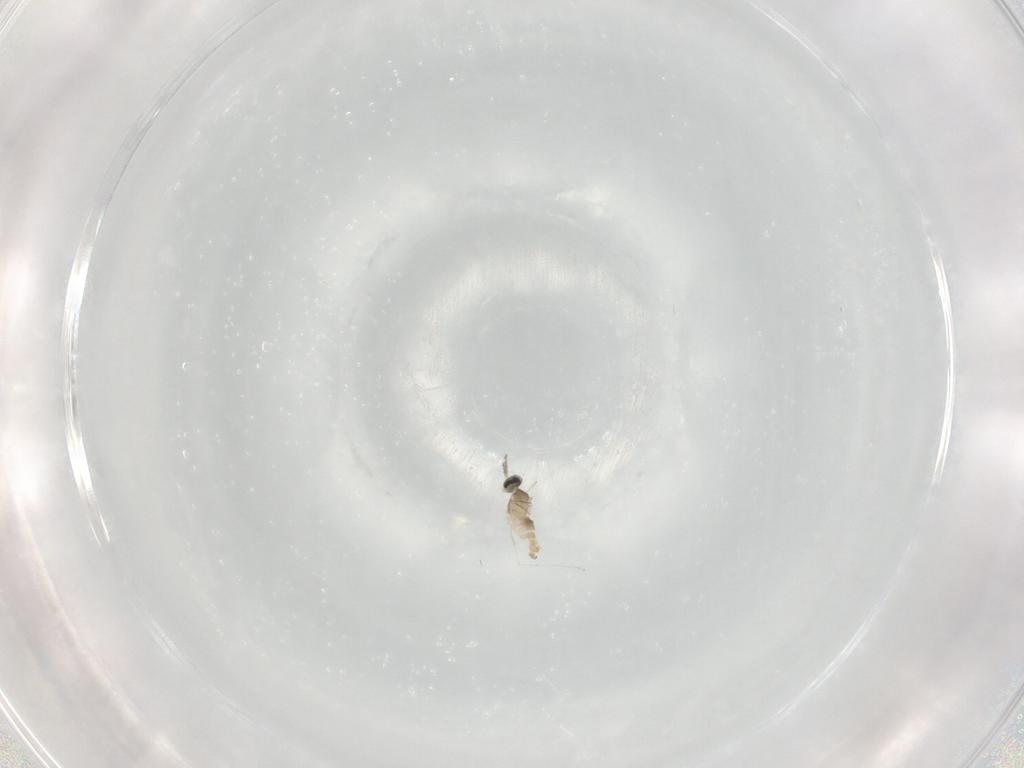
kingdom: Animalia
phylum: Arthropoda
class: Insecta
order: Diptera
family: Cecidomyiidae
